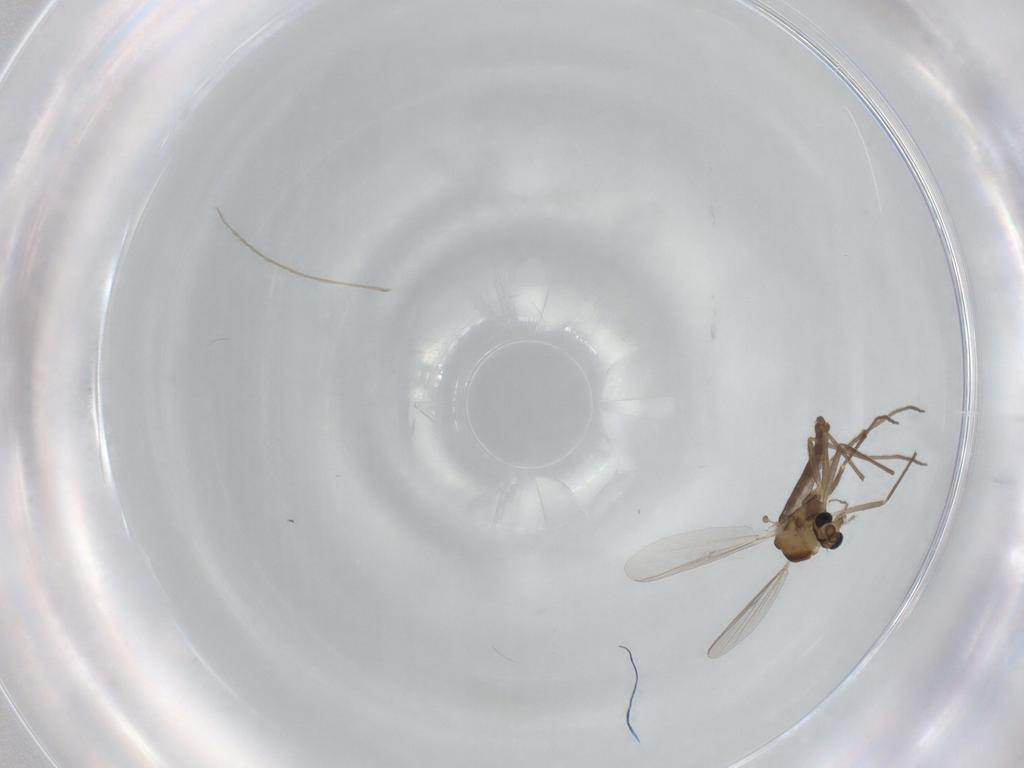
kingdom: Animalia
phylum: Arthropoda
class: Insecta
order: Diptera
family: Chironomidae
